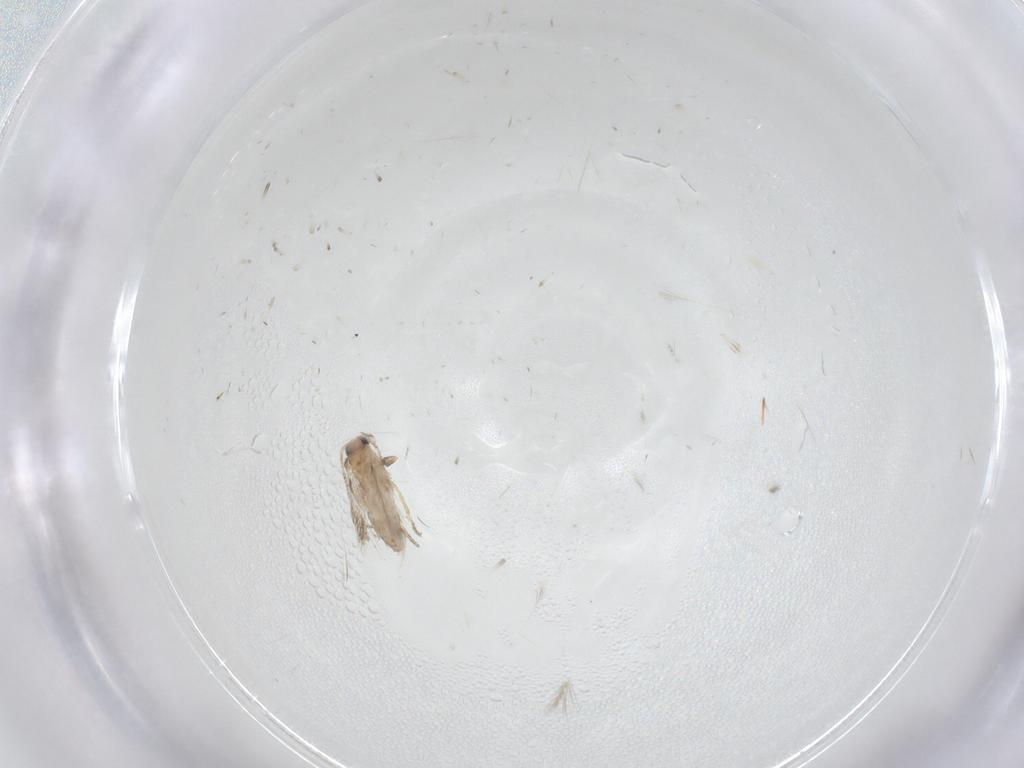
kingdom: Animalia
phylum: Arthropoda
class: Insecta
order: Lepidoptera
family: Nepticulidae
